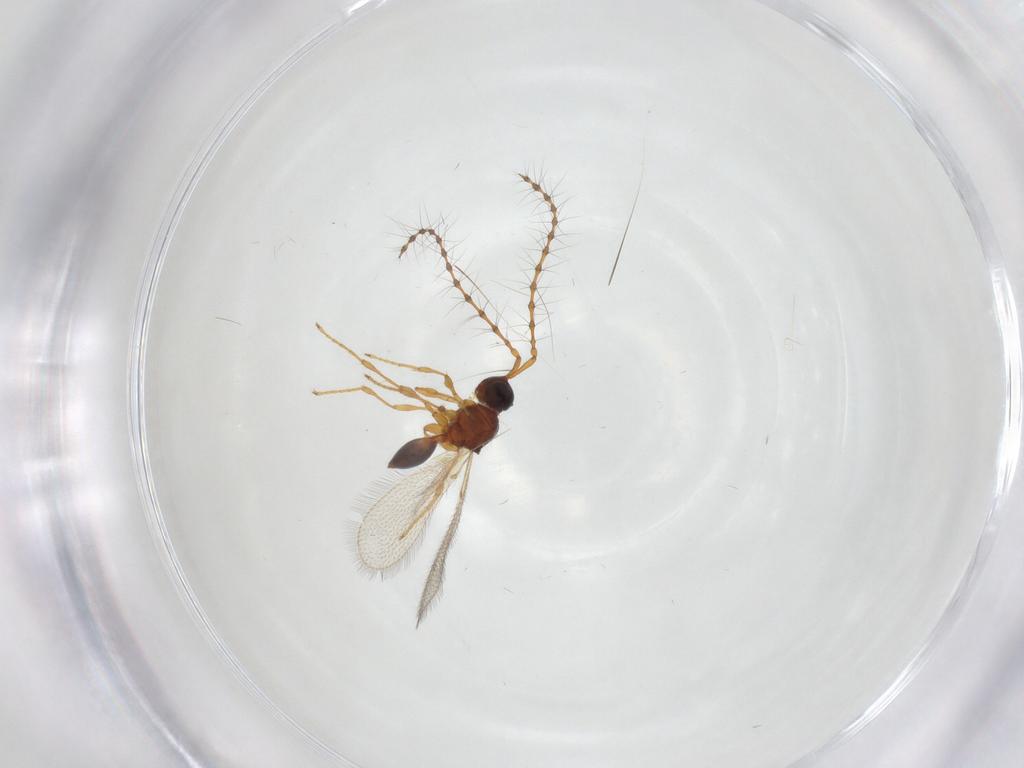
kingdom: Animalia
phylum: Arthropoda
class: Insecta
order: Hymenoptera
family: Diapriidae
